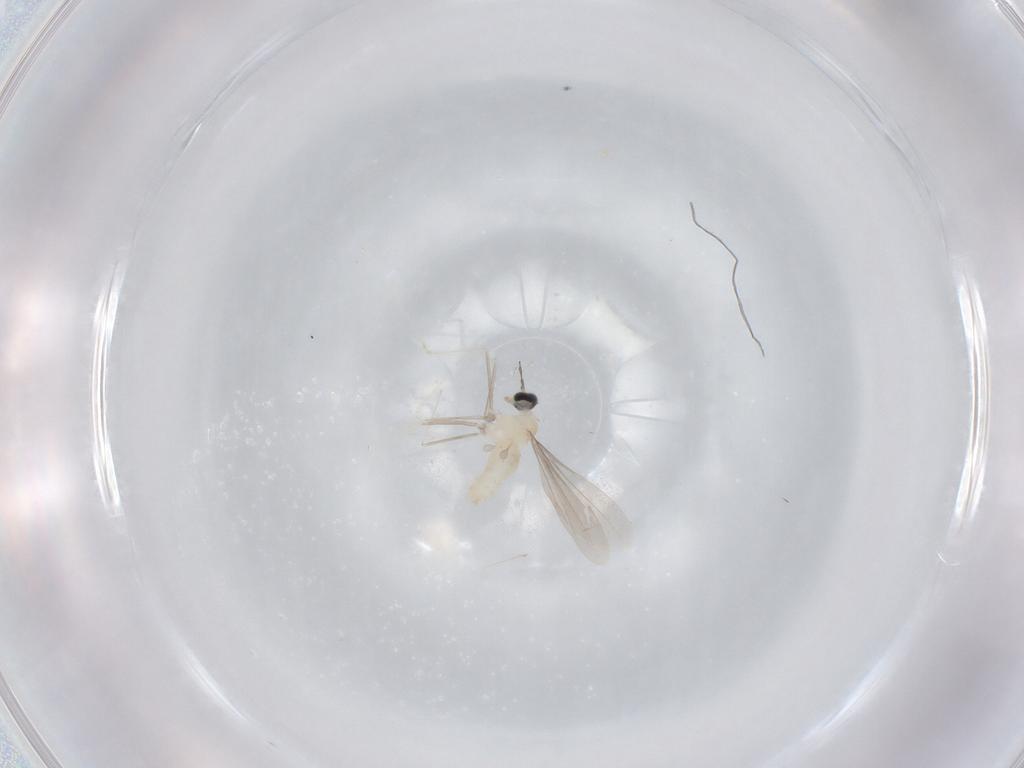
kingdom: Animalia
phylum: Arthropoda
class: Insecta
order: Diptera
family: Cecidomyiidae
